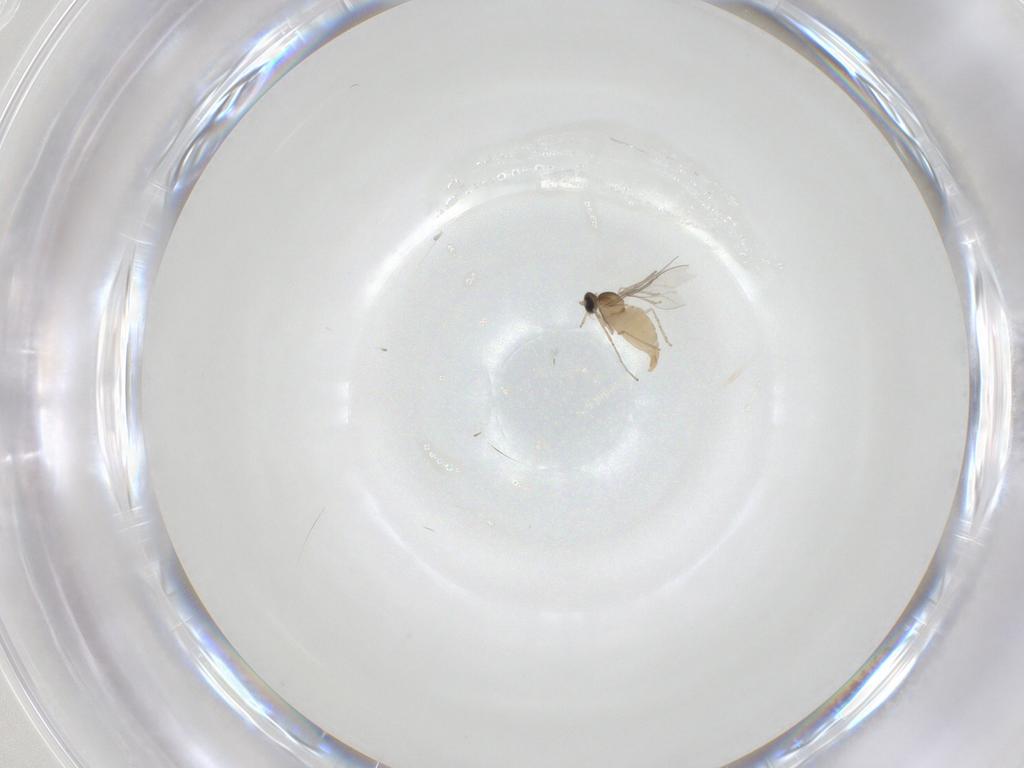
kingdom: Animalia
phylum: Arthropoda
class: Insecta
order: Diptera
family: Cecidomyiidae
